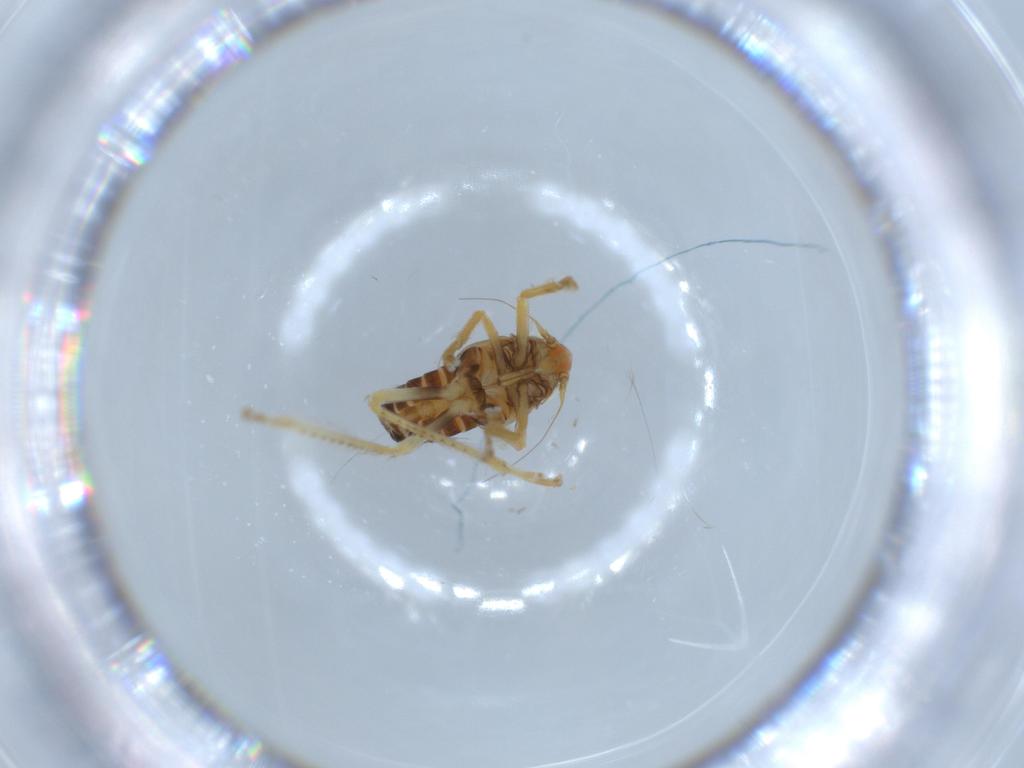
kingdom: Animalia
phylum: Arthropoda
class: Insecta
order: Hemiptera
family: Cicadellidae
